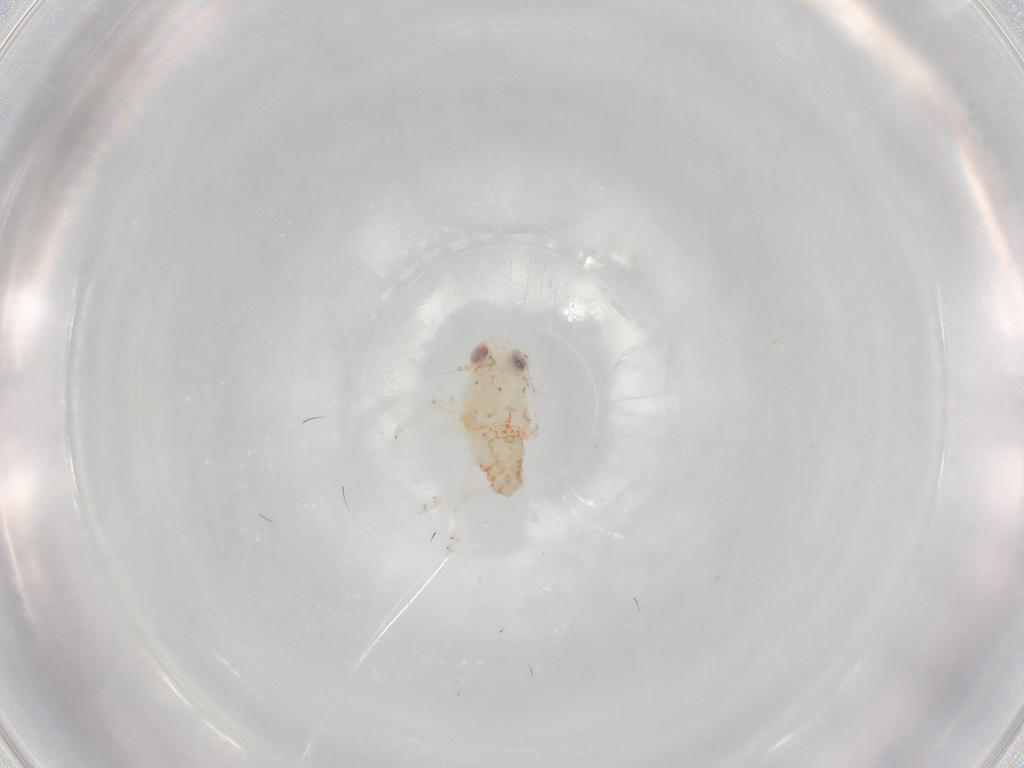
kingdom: Animalia
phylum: Arthropoda
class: Insecta
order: Hemiptera
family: Nogodinidae
